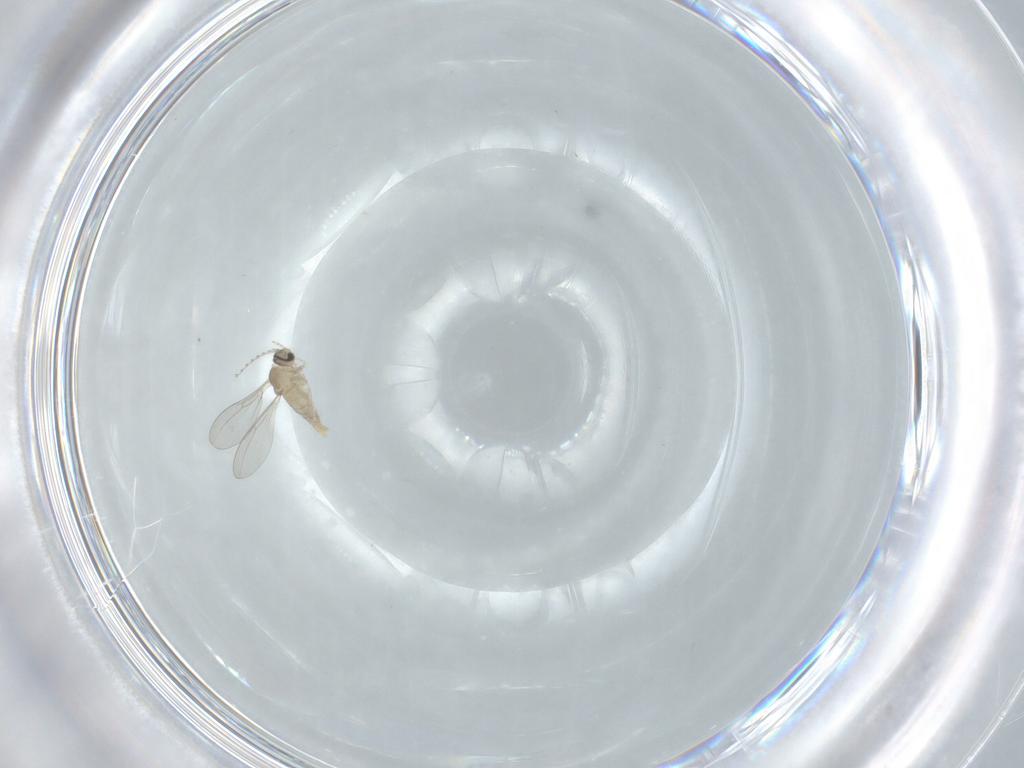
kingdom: Animalia
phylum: Arthropoda
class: Insecta
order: Diptera
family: Cecidomyiidae
